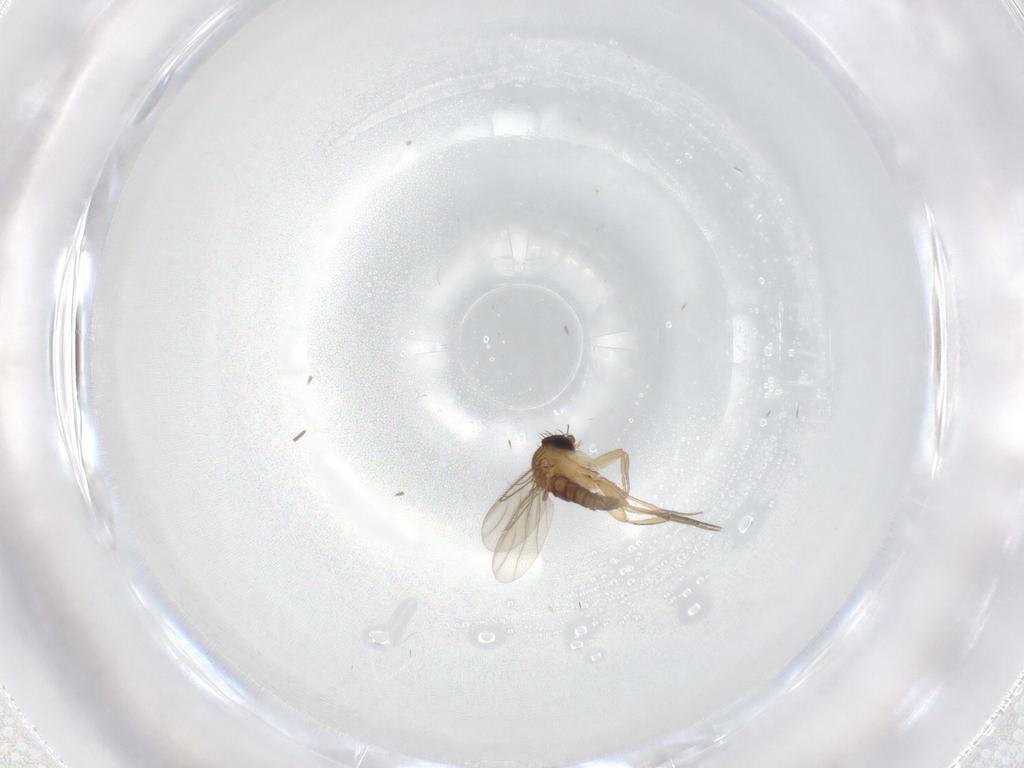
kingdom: Animalia
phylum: Arthropoda
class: Insecta
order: Diptera
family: Phoridae
